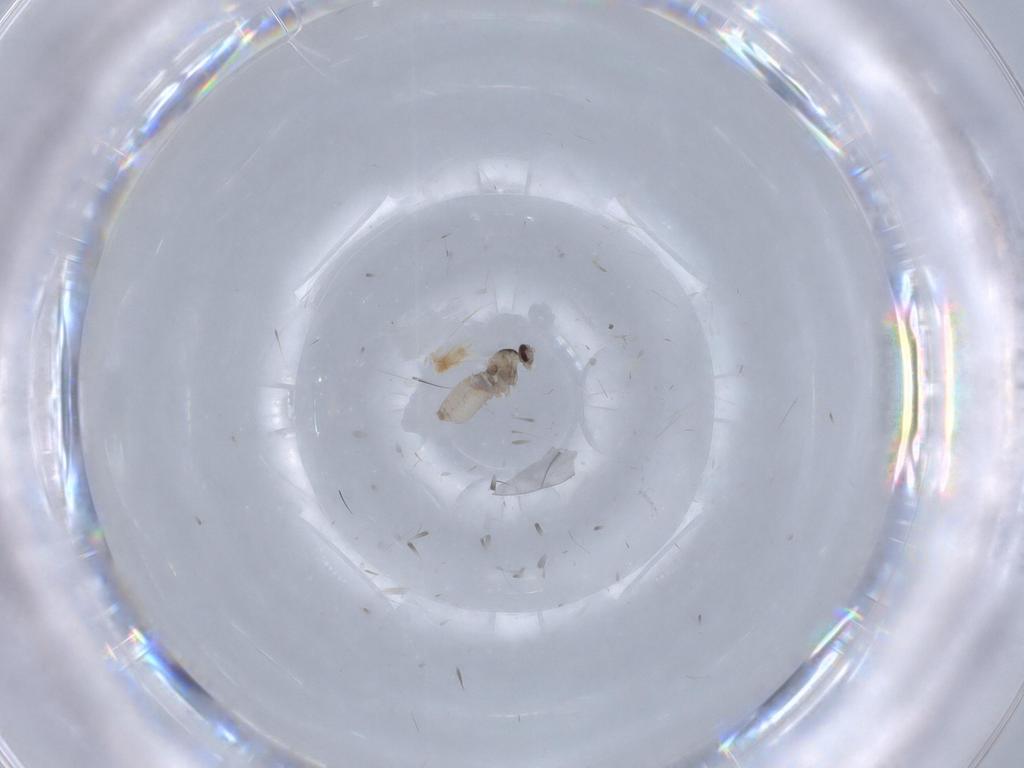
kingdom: Animalia
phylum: Arthropoda
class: Insecta
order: Diptera
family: Cecidomyiidae
